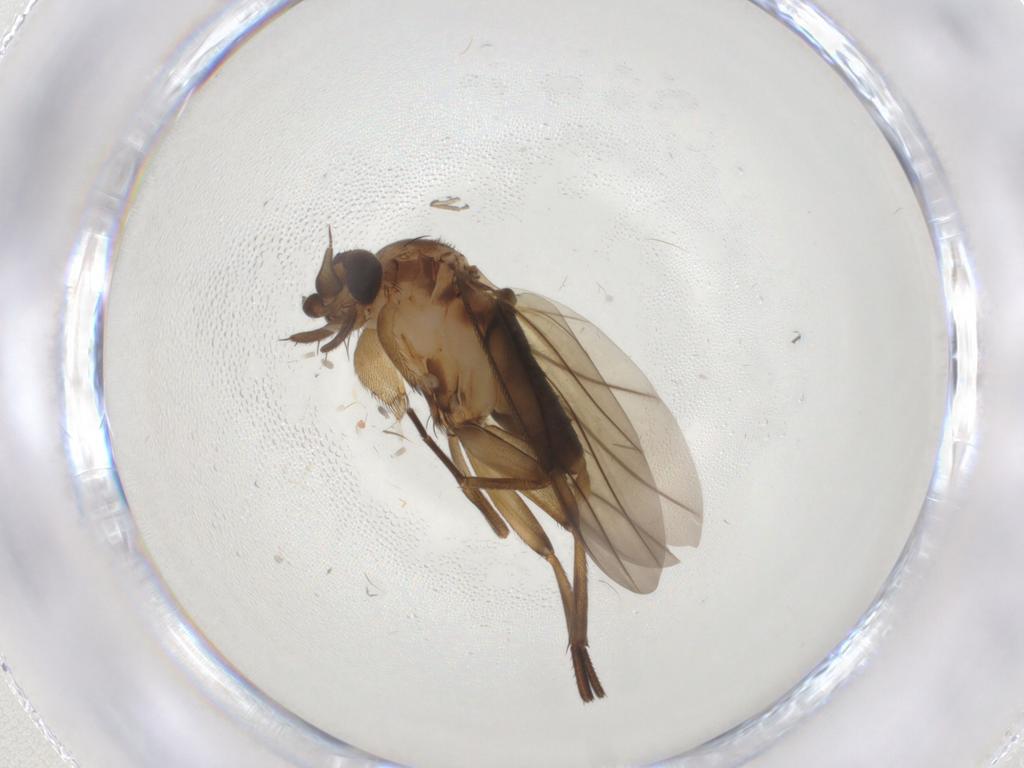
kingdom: Animalia
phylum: Arthropoda
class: Insecta
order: Diptera
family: Phoridae
